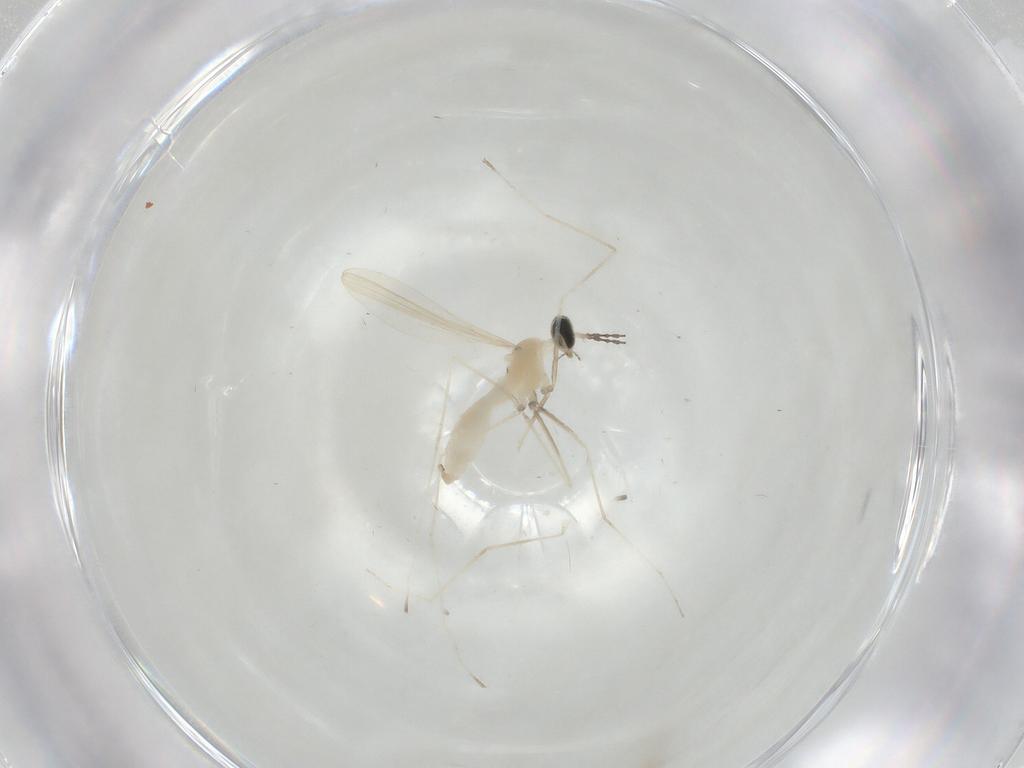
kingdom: Animalia
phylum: Arthropoda
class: Insecta
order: Diptera
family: Cecidomyiidae
